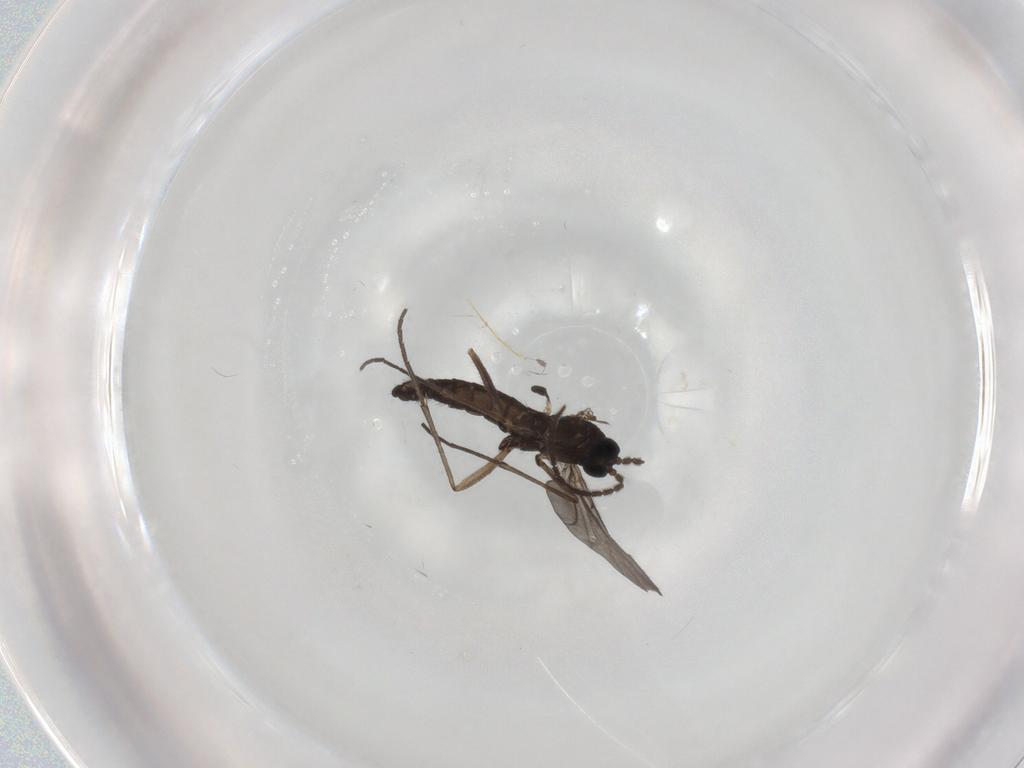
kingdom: Animalia
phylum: Arthropoda
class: Insecta
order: Diptera
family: Sciaridae
